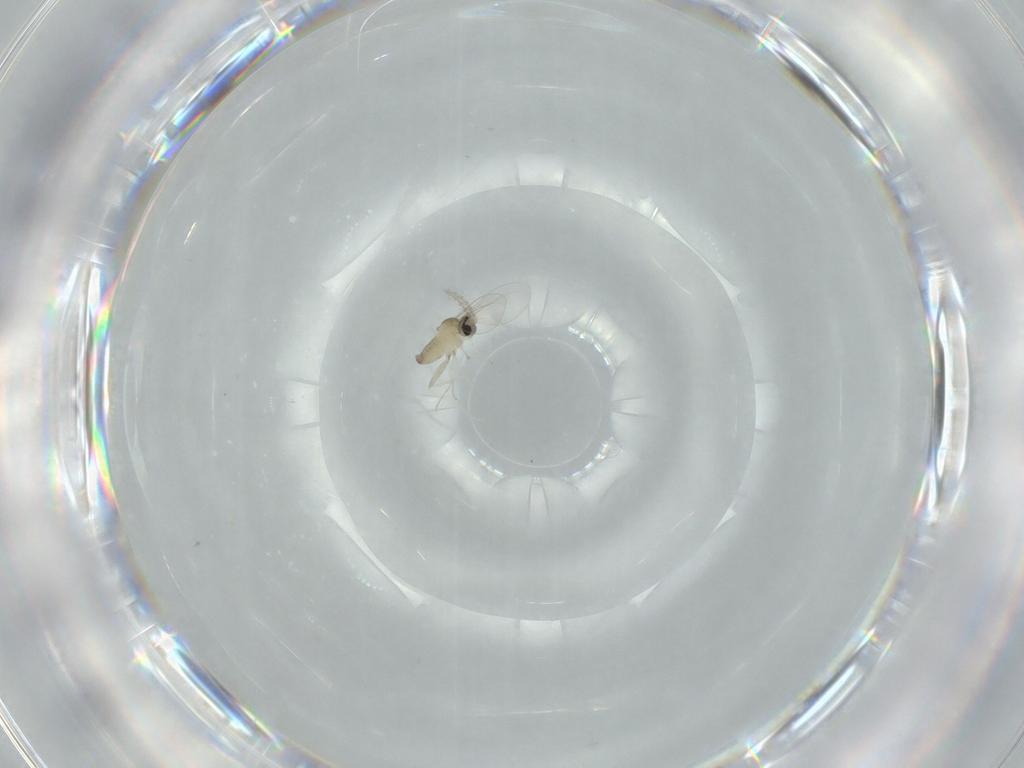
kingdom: Animalia
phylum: Arthropoda
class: Insecta
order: Diptera
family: Cecidomyiidae
